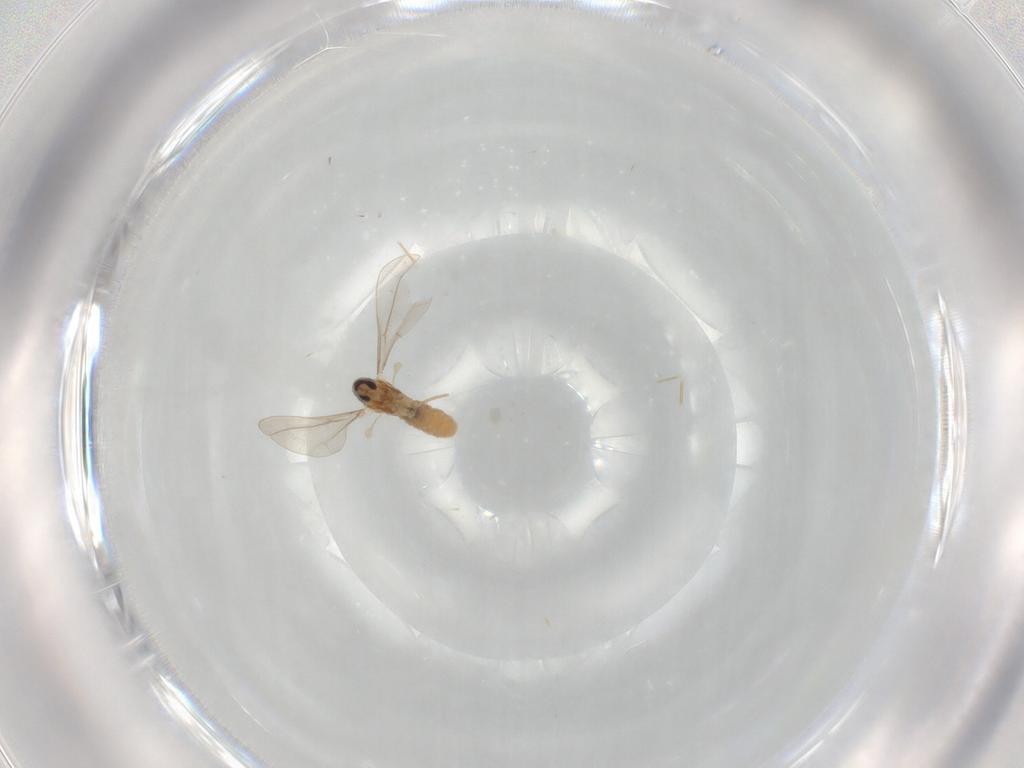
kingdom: Animalia
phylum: Arthropoda
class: Insecta
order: Diptera
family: Cecidomyiidae
